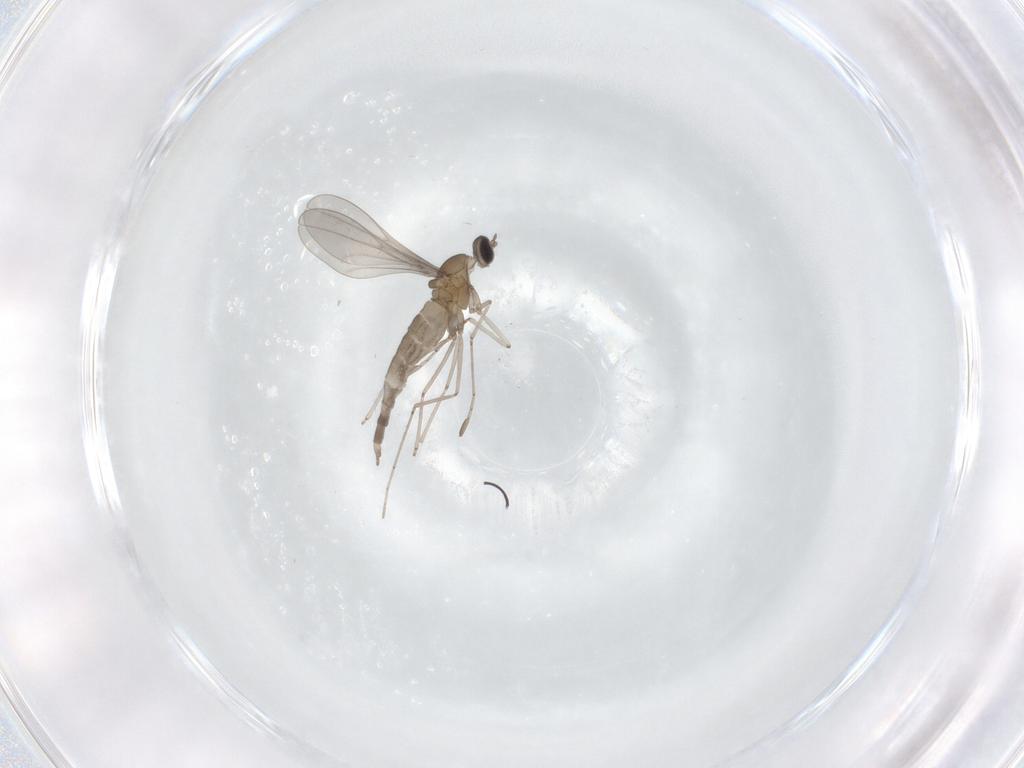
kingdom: Animalia
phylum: Arthropoda
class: Insecta
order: Diptera
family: Cecidomyiidae
